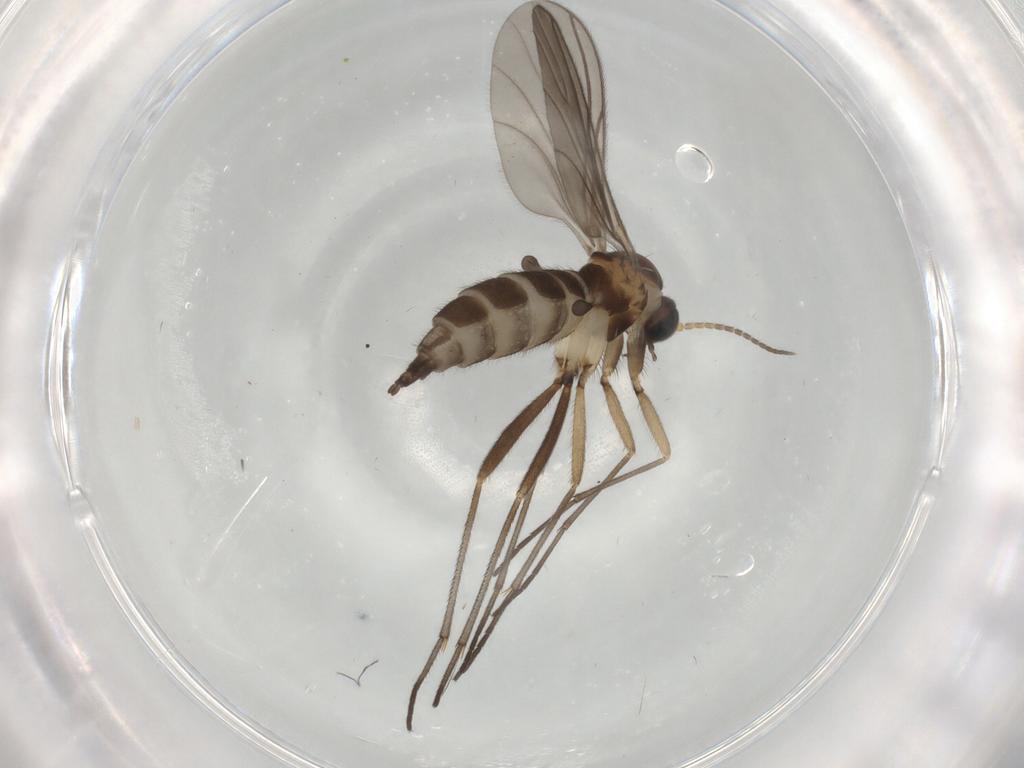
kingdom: Animalia
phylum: Arthropoda
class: Insecta
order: Diptera
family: Sciaridae
